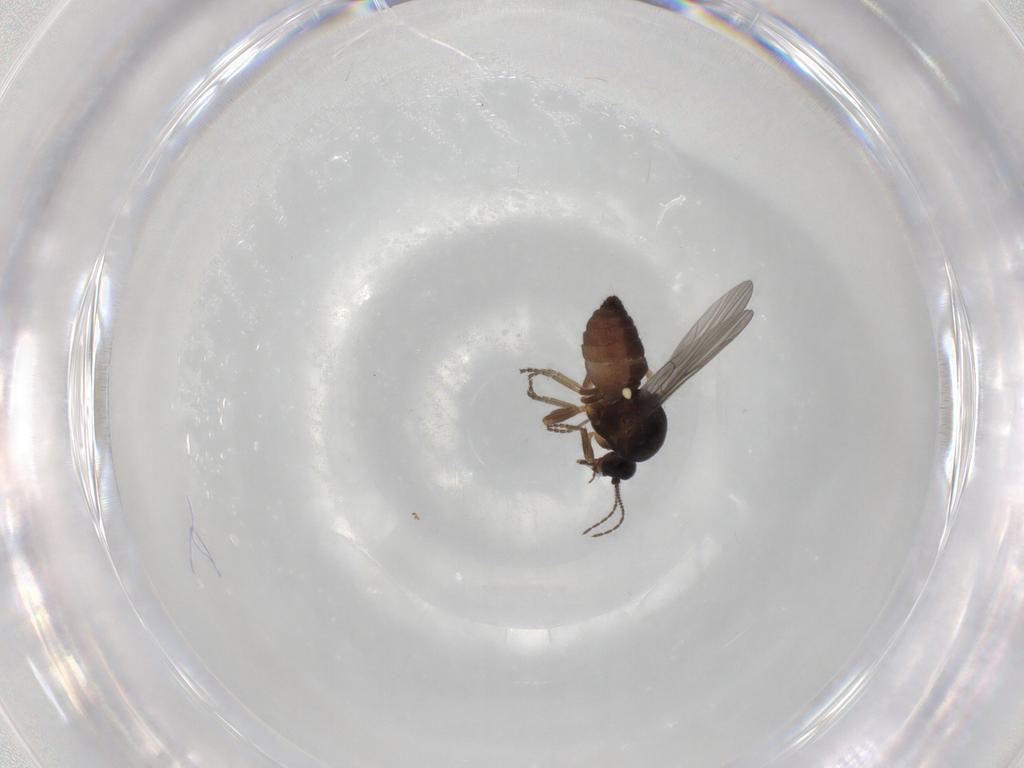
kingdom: Animalia
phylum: Arthropoda
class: Insecta
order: Diptera
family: Ceratopogonidae
